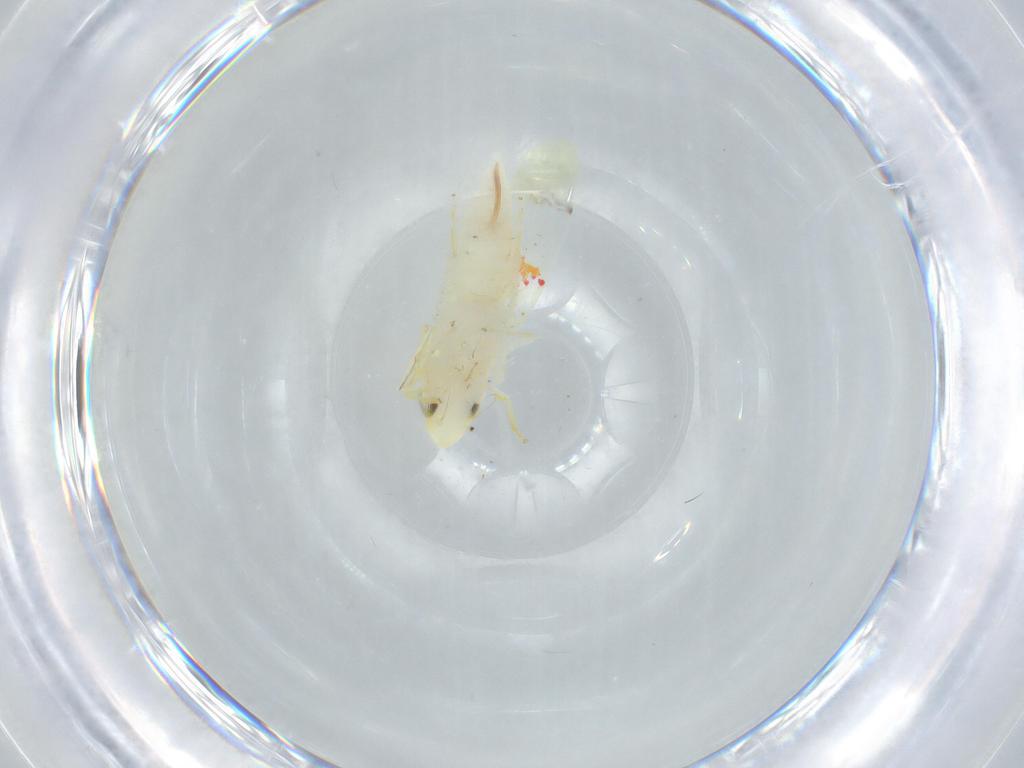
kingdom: Animalia
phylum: Arthropoda
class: Insecta
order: Hemiptera
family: Cicadellidae
